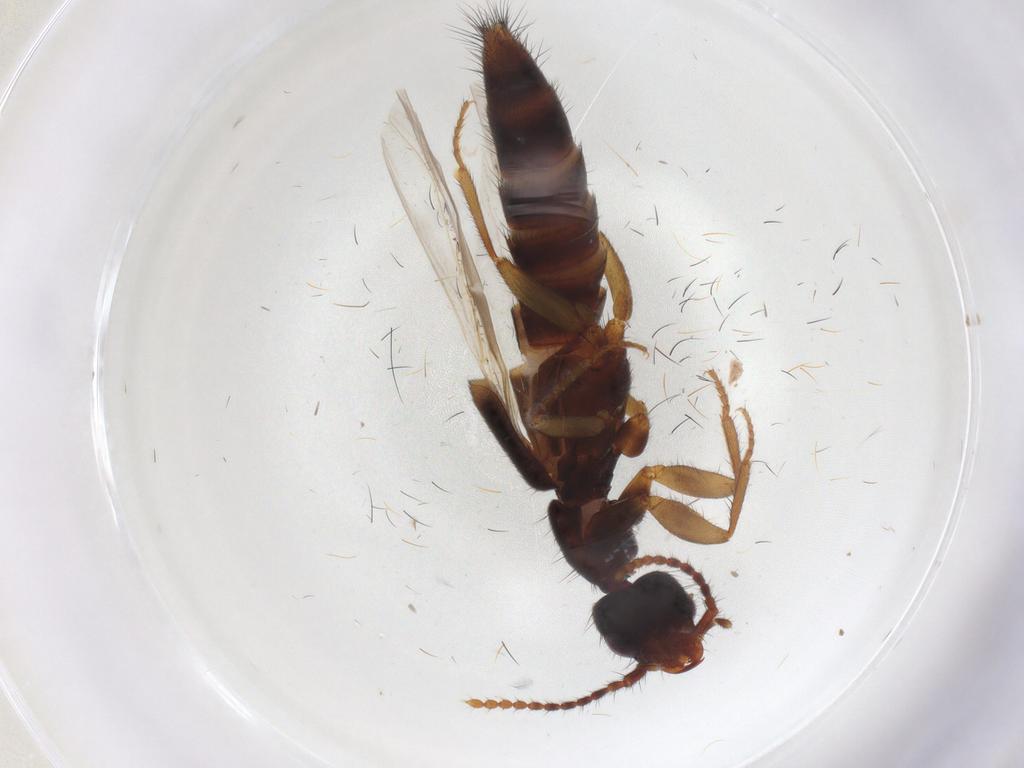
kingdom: Animalia
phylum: Arthropoda
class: Insecta
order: Coleoptera
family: Staphylinidae
